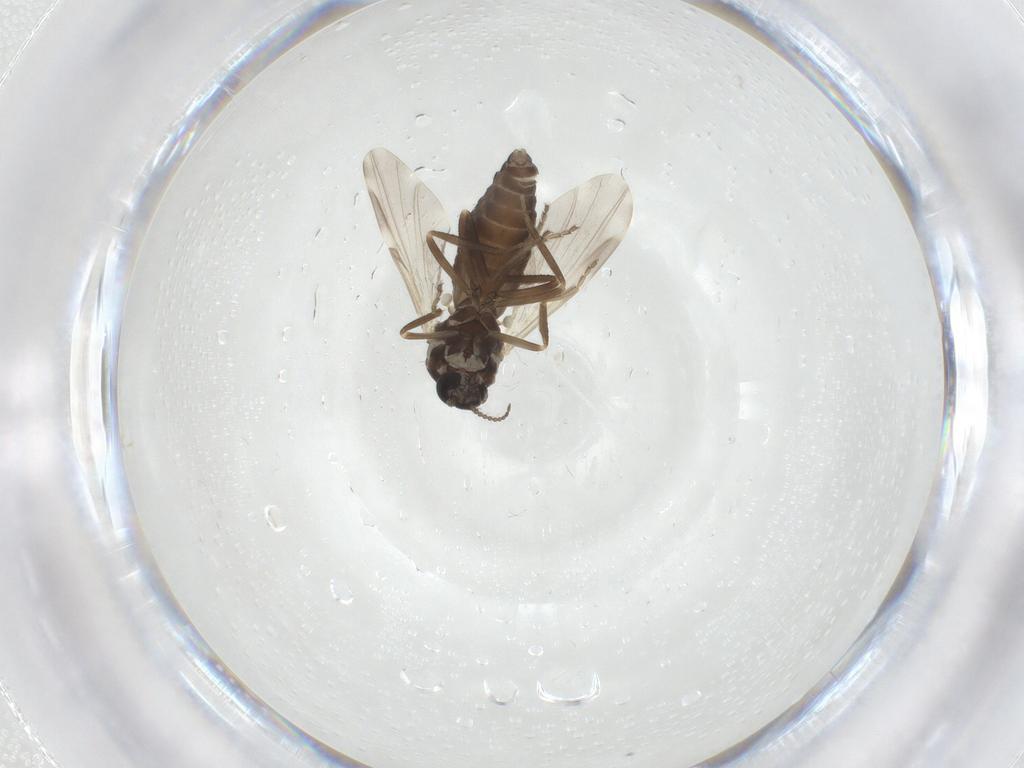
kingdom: Animalia
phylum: Arthropoda
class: Insecta
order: Diptera
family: Ceratopogonidae
